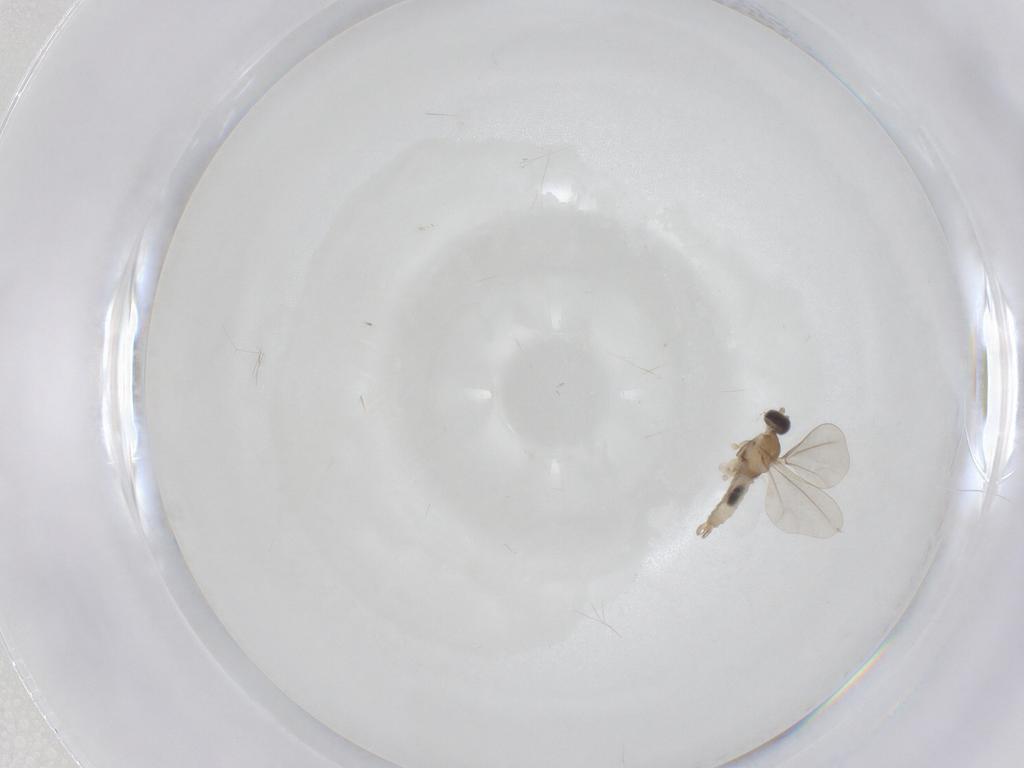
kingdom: Animalia
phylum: Arthropoda
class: Insecta
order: Diptera
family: Cecidomyiidae
